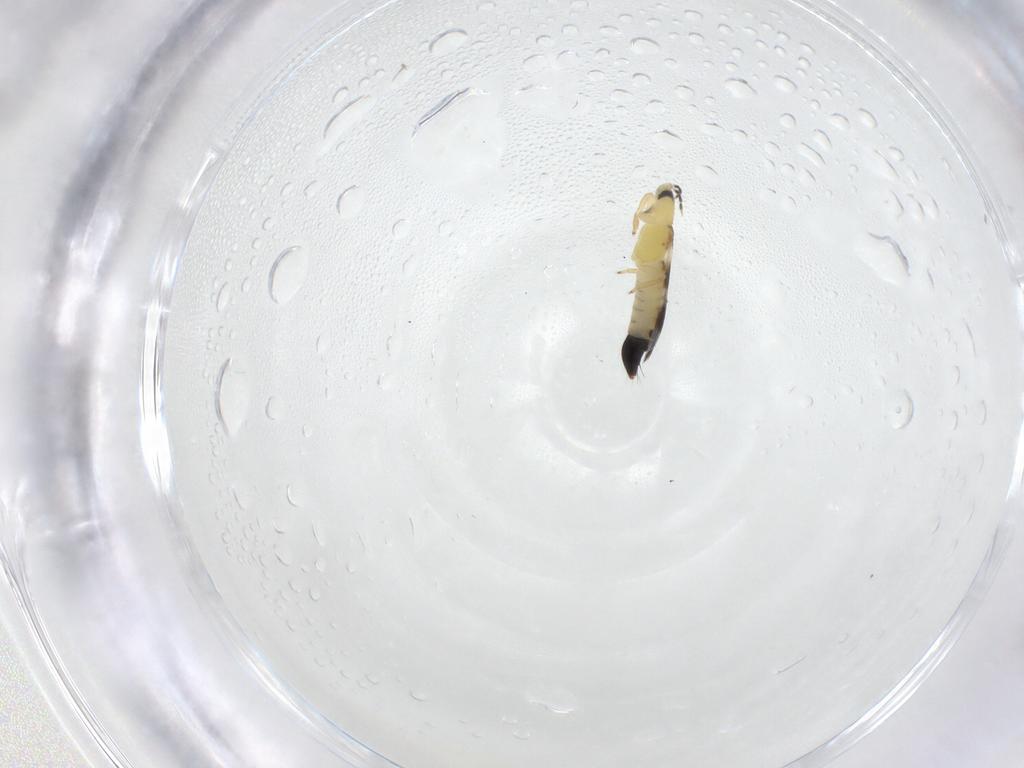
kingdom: Animalia
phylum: Arthropoda
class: Insecta
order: Thysanoptera
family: Aeolothripidae
